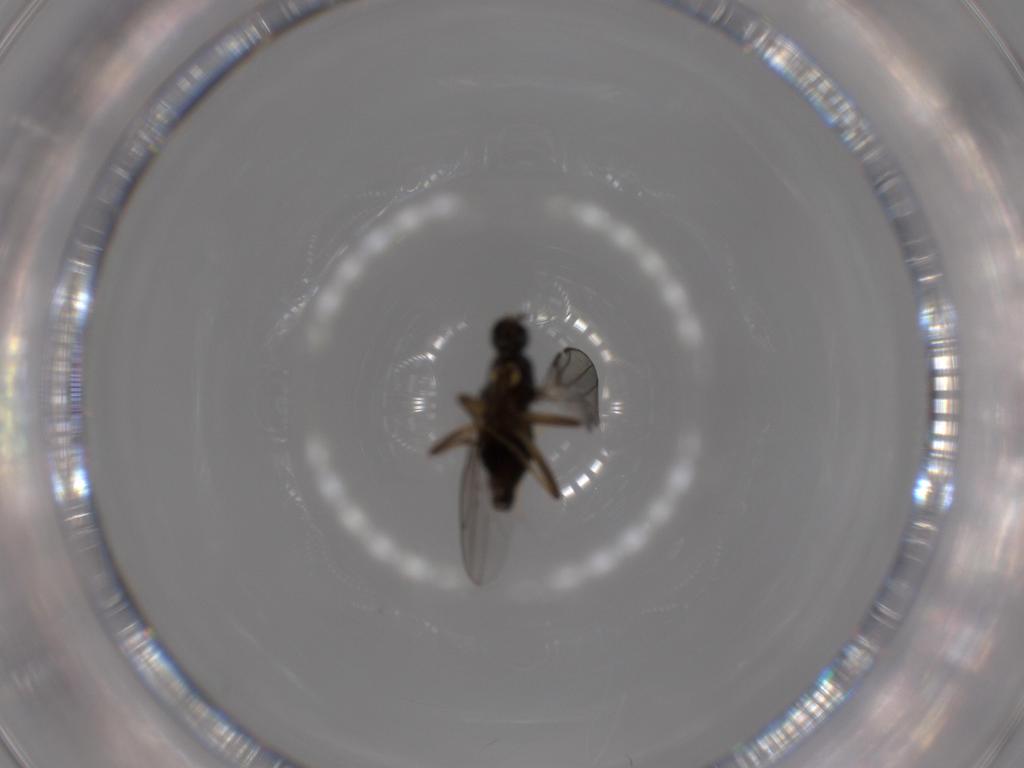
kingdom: Animalia
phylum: Arthropoda
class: Insecta
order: Diptera
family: Hybotidae
